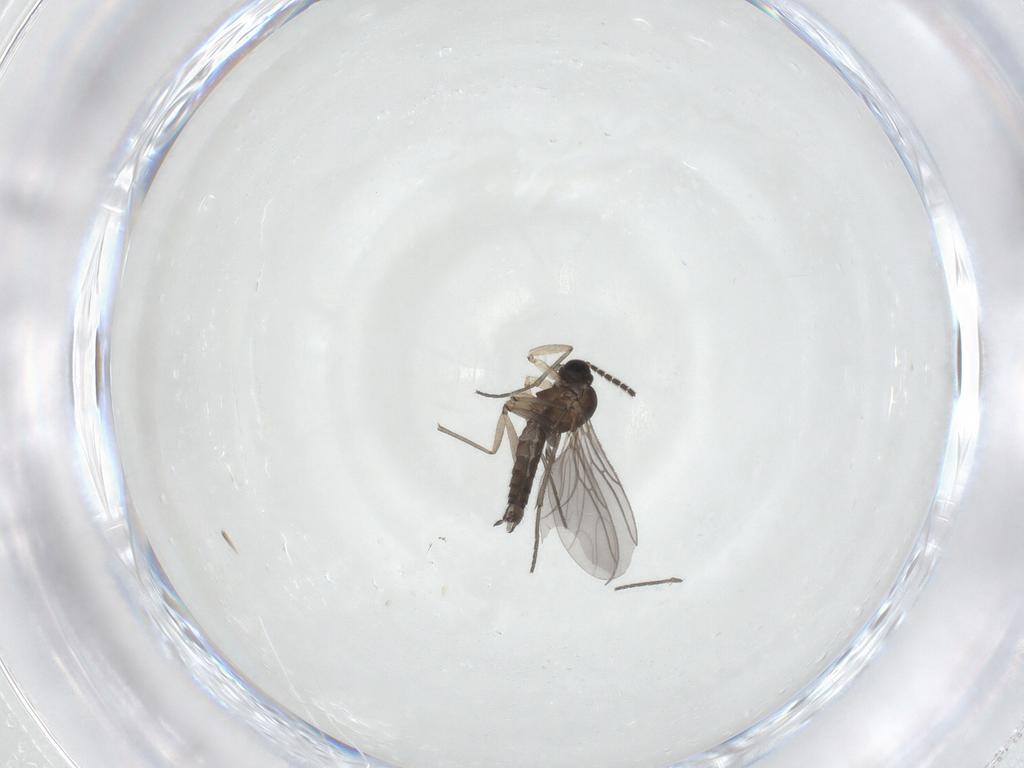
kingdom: Animalia
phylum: Arthropoda
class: Insecta
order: Diptera
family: Sciaridae
